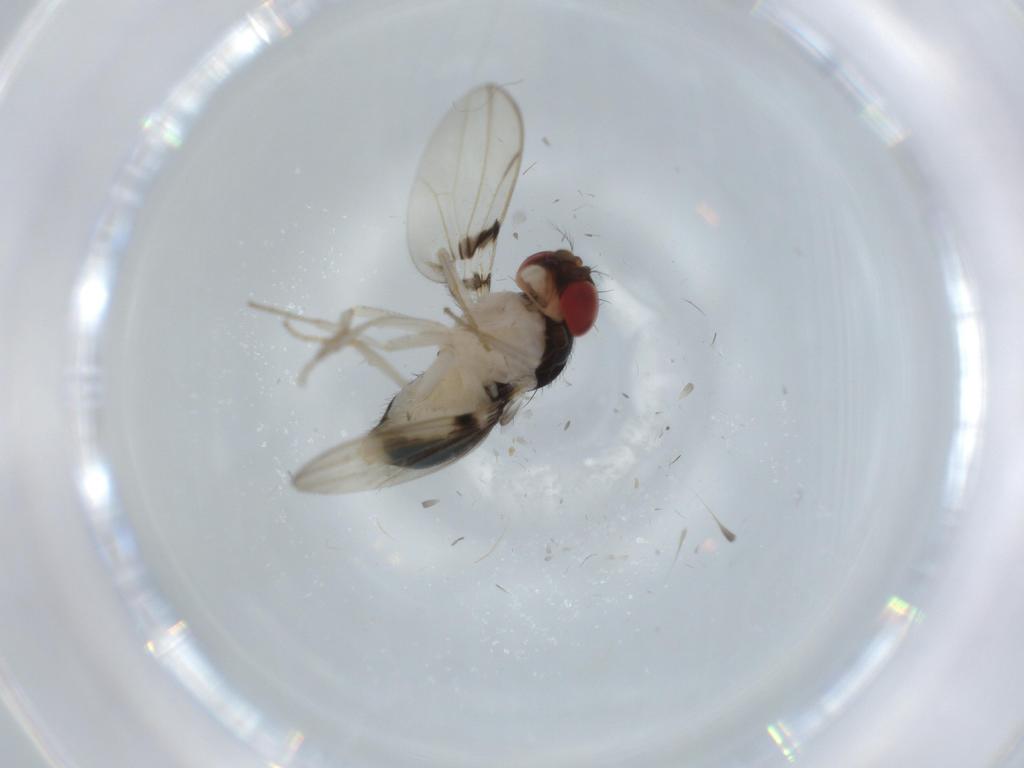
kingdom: Animalia
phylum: Arthropoda
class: Insecta
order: Diptera
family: Drosophilidae
